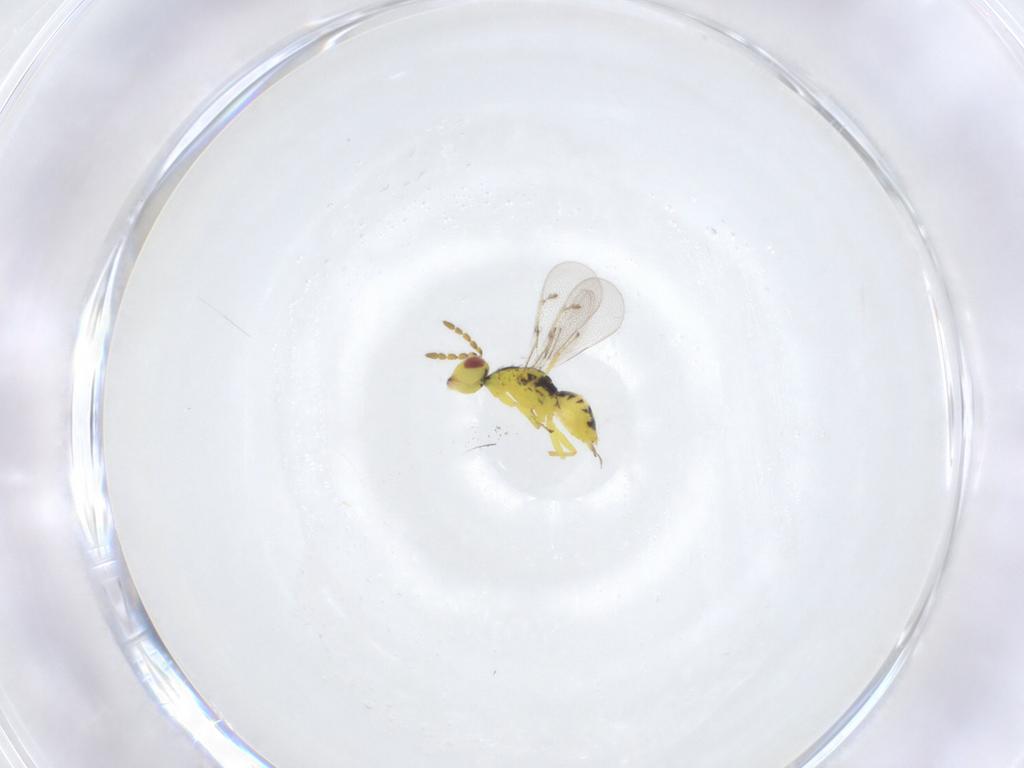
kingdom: Animalia
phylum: Arthropoda
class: Insecta
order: Hymenoptera
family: Eulophidae
